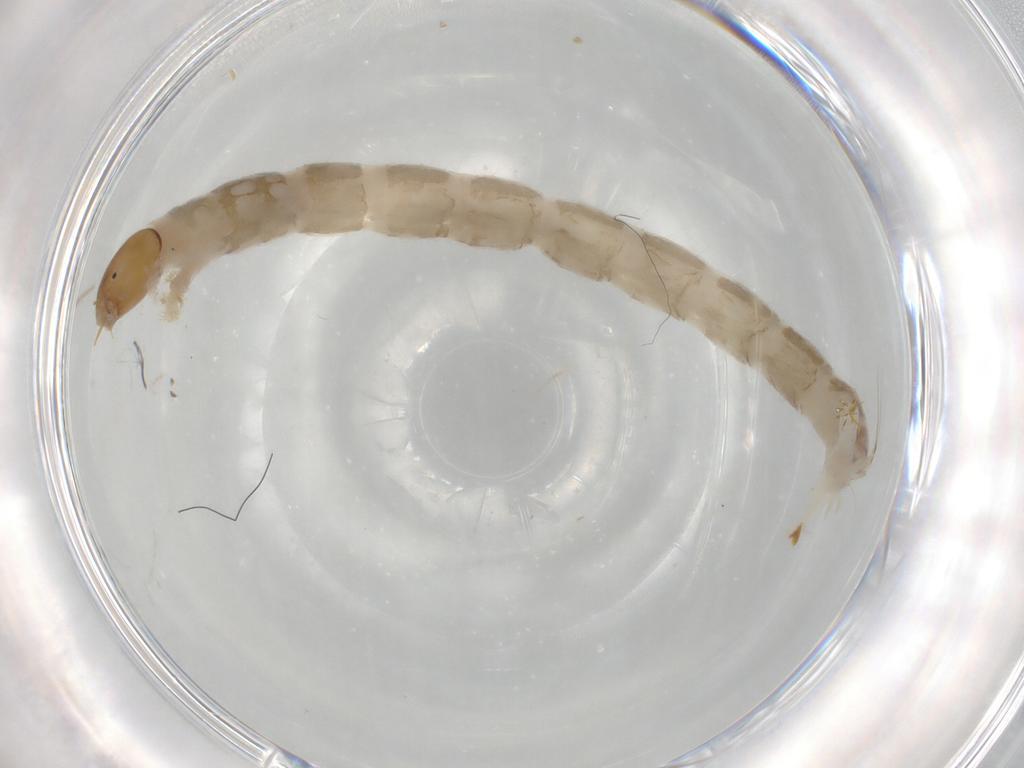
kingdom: Animalia
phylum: Arthropoda
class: Insecta
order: Diptera
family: Chironomidae
